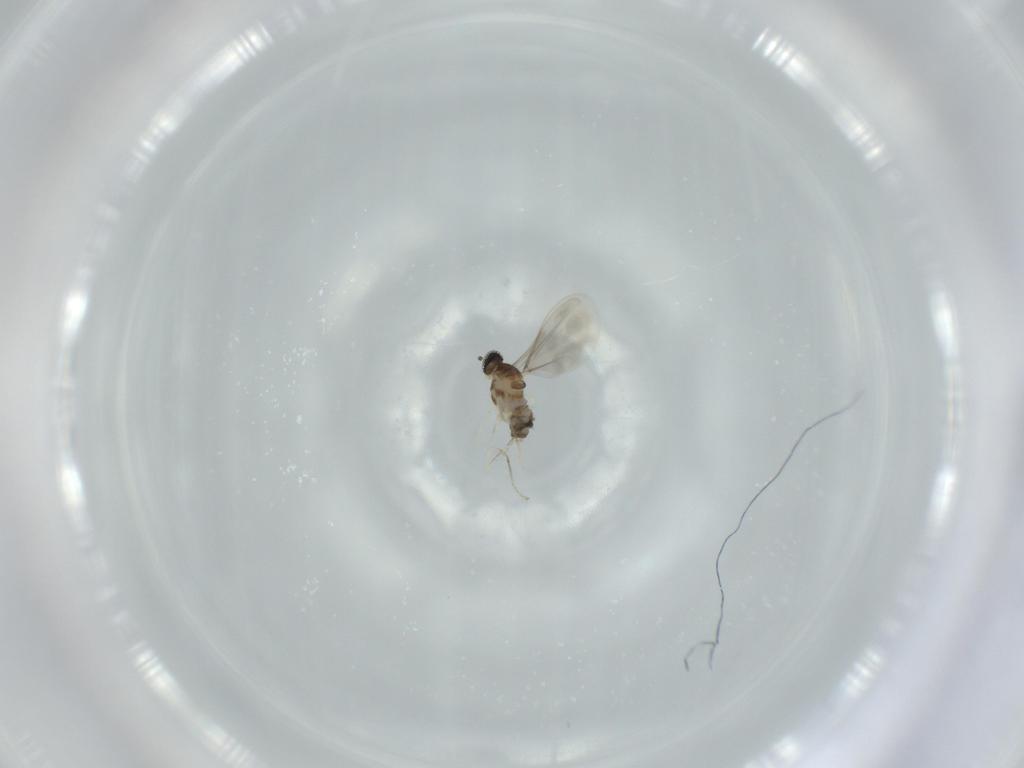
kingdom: Animalia
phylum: Arthropoda
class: Insecta
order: Diptera
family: Cecidomyiidae
